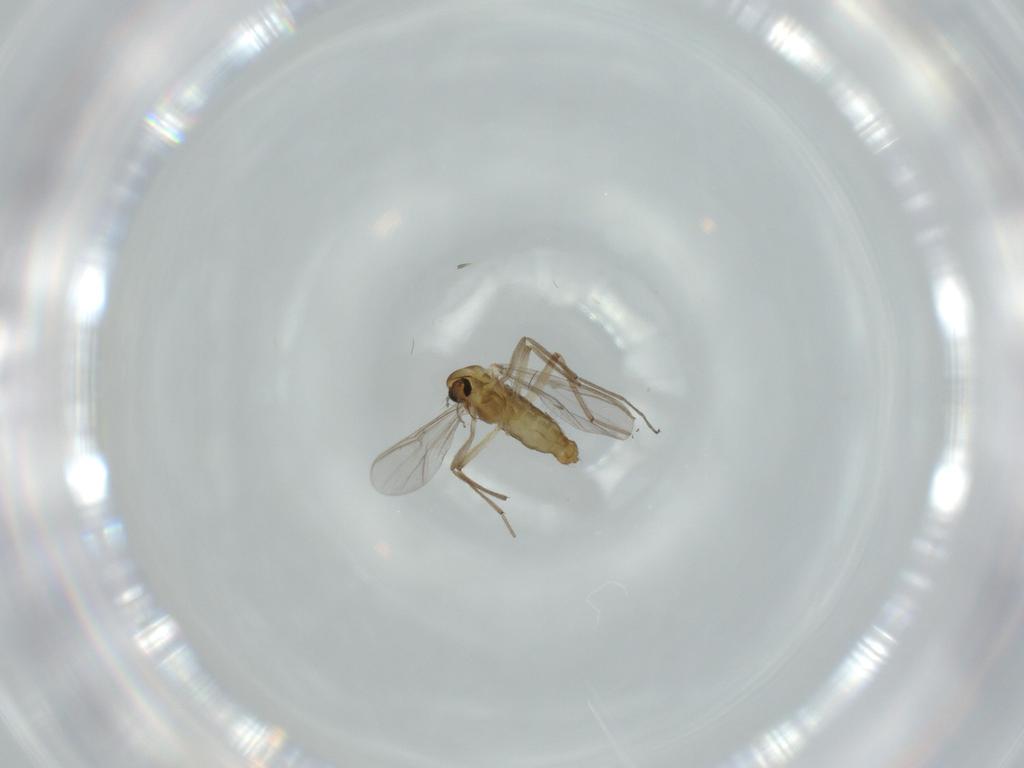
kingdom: Animalia
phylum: Arthropoda
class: Insecta
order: Diptera
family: Chironomidae
